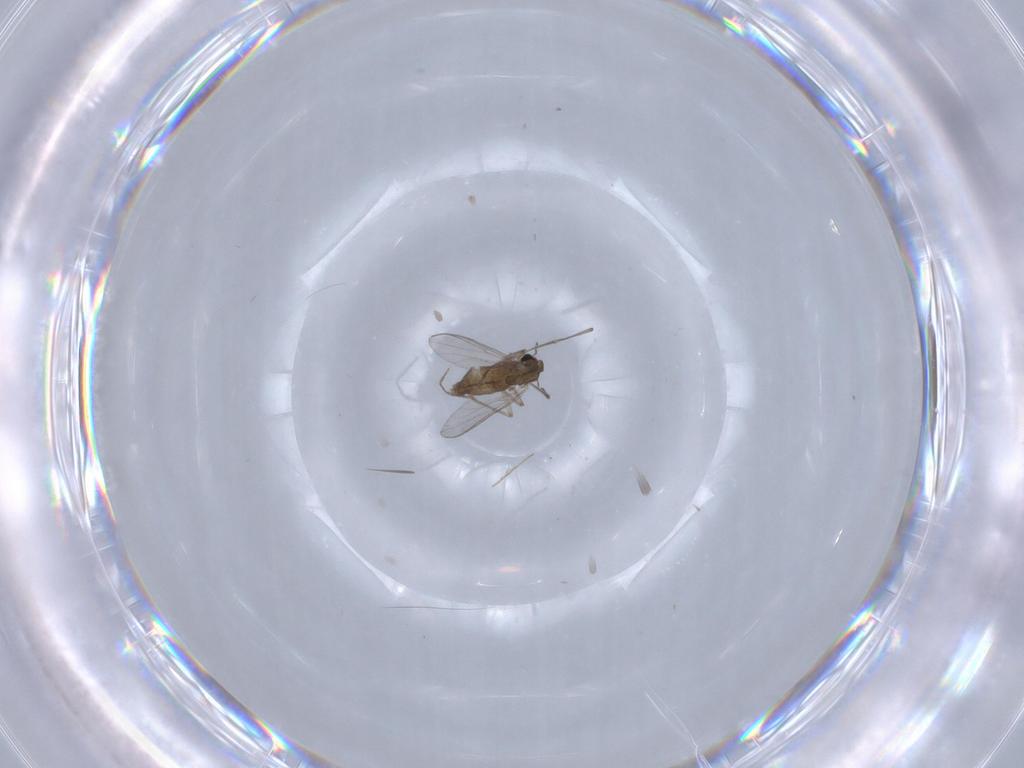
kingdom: Animalia
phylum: Arthropoda
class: Insecta
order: Diptera
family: Chironomidae
